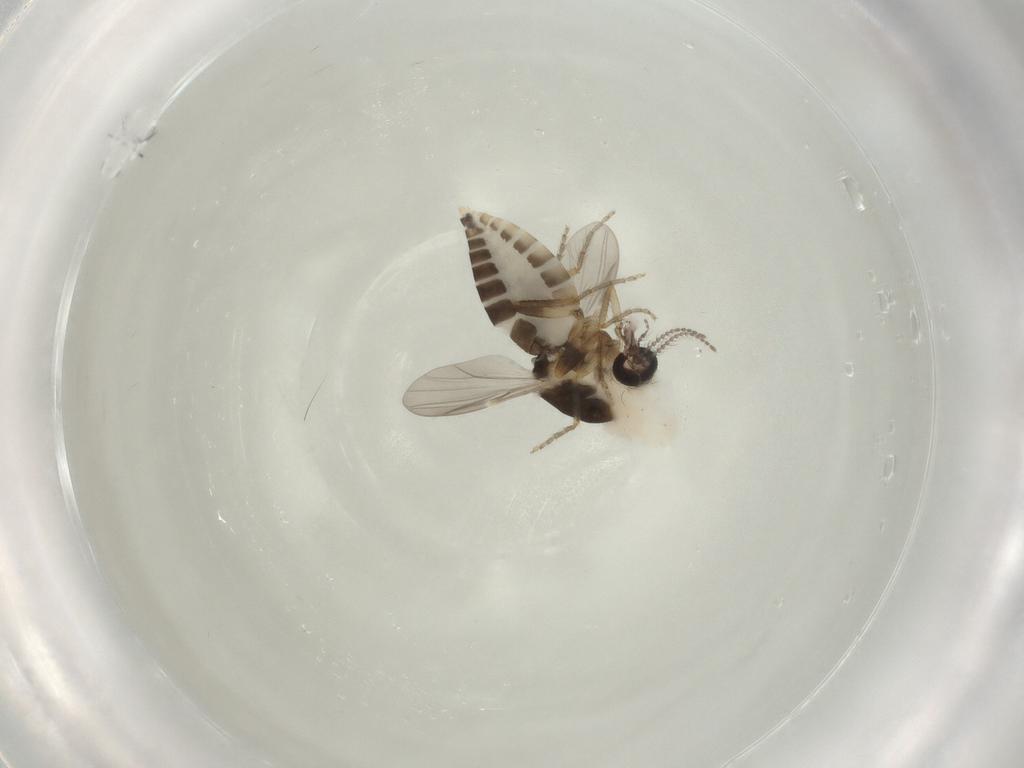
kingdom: Animalia
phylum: Arthropoda
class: Insecta
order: Diptera
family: Ceratopogonidae
